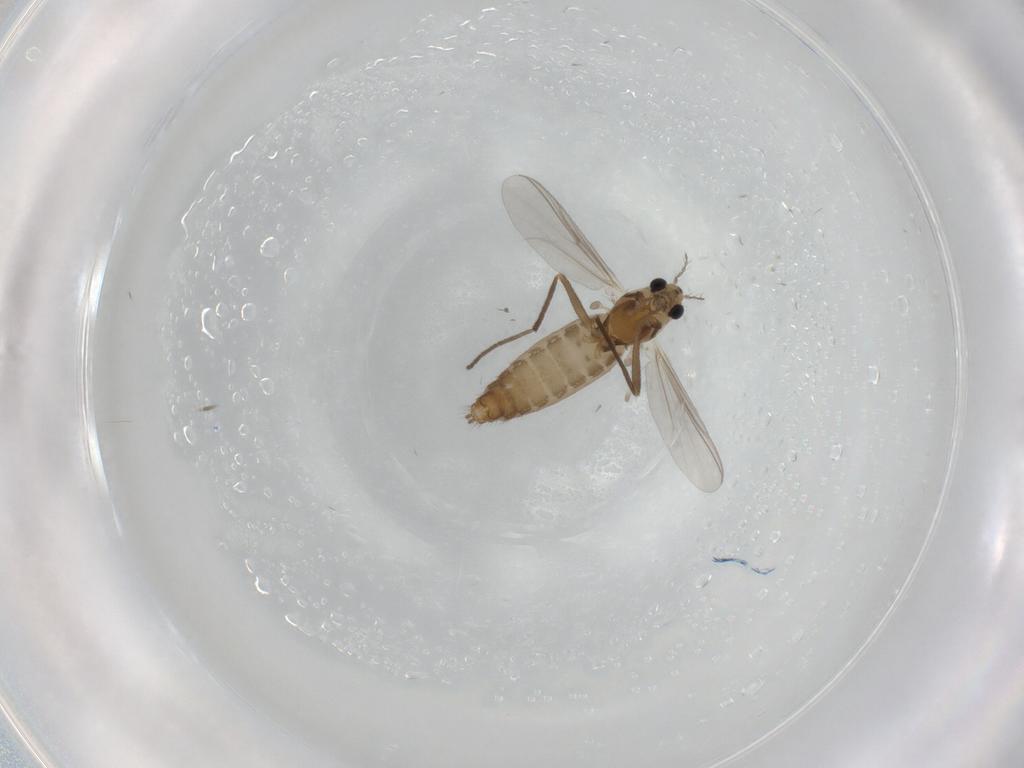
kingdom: Animalia
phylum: Arthropoda
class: Insecta
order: Diptera
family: Chironomidae
